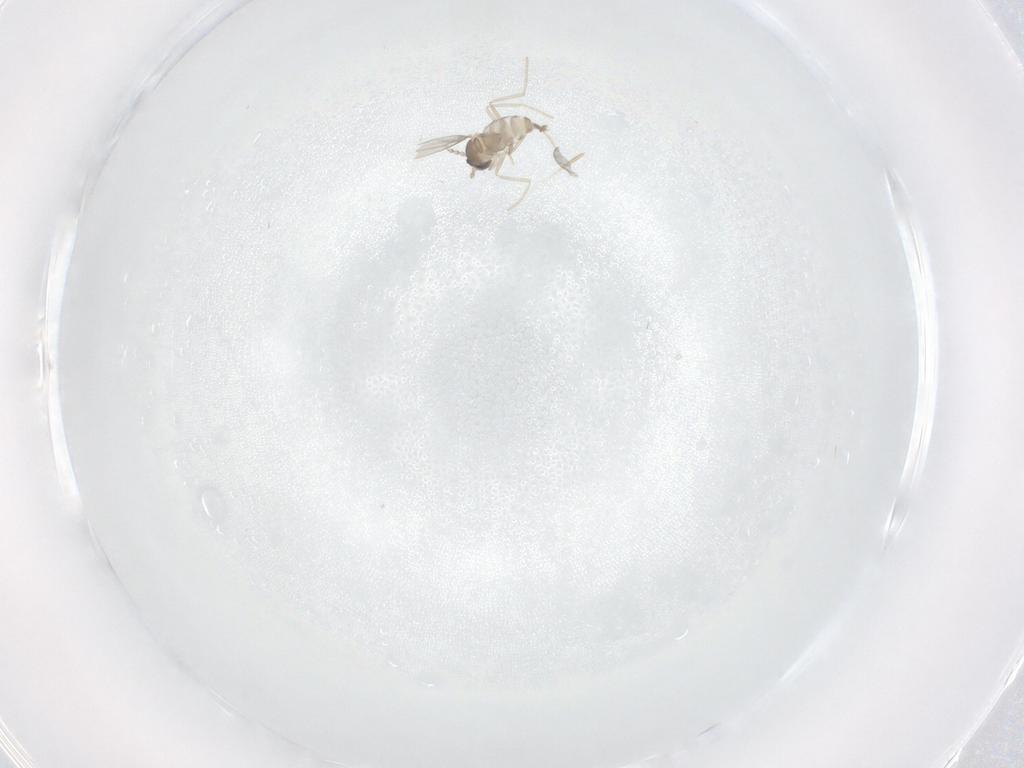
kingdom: Animalia
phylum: Arthropoda
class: Insecta
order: Diptera
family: Cecidomyiidae
